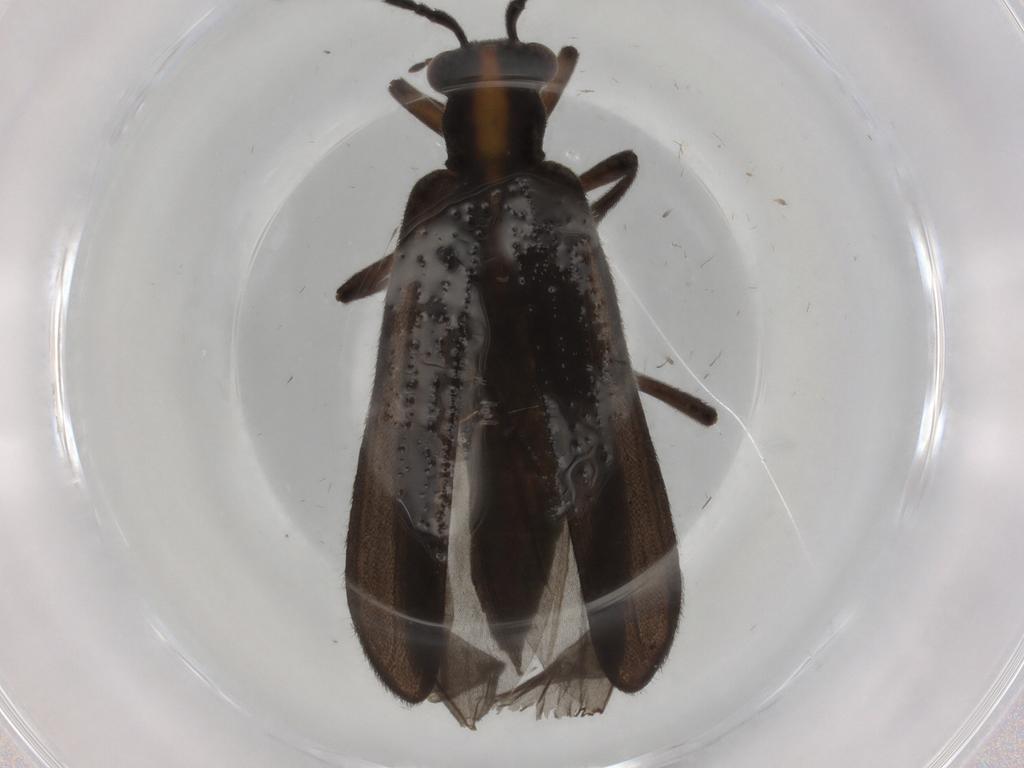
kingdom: Animalia
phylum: Arthropoda
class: Insecta
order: Coleoptera
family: Oedemeridae
